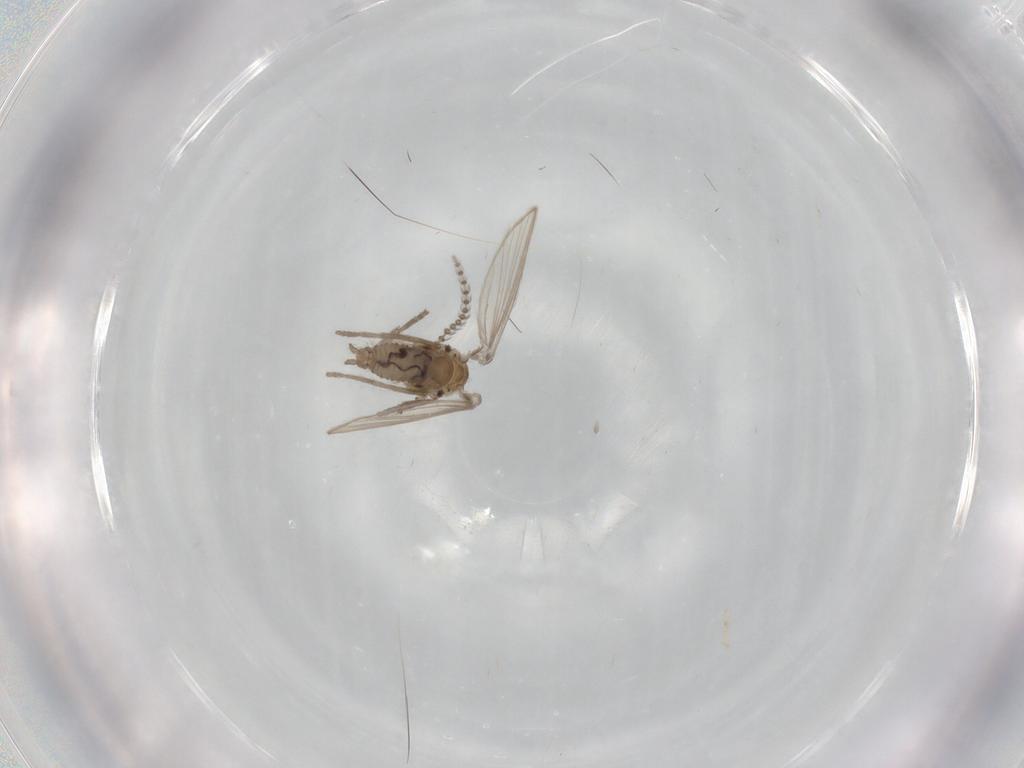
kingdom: Animalia
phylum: Arthropoda
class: Insecta
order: Diptera
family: Psychodidae
